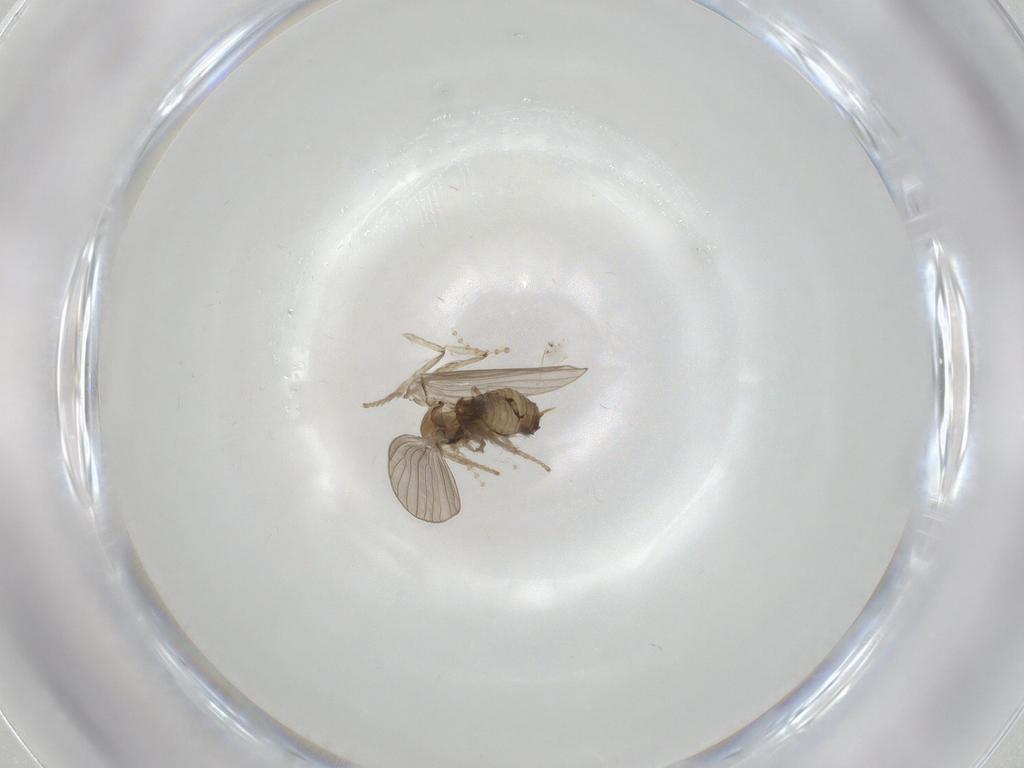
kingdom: Animalia
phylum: Arthropoda
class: Insecta
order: Diptera
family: Psychodidae
